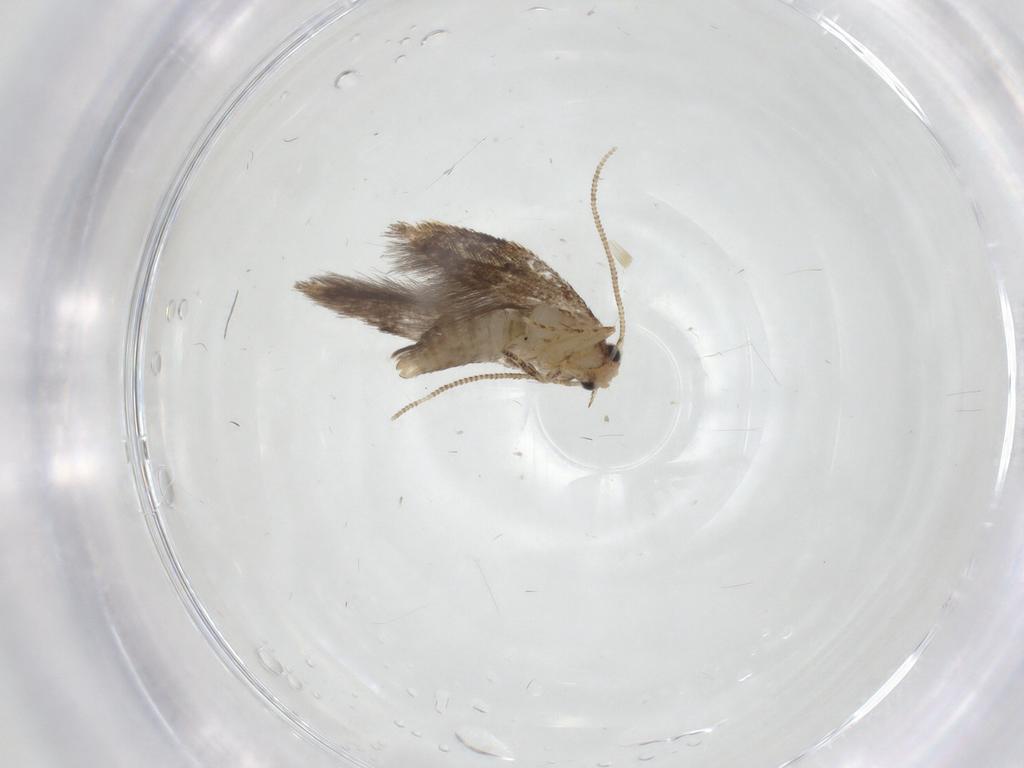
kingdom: Animalia
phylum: Arthropoda
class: Insecta
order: Lepidoptera
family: Tineidae
